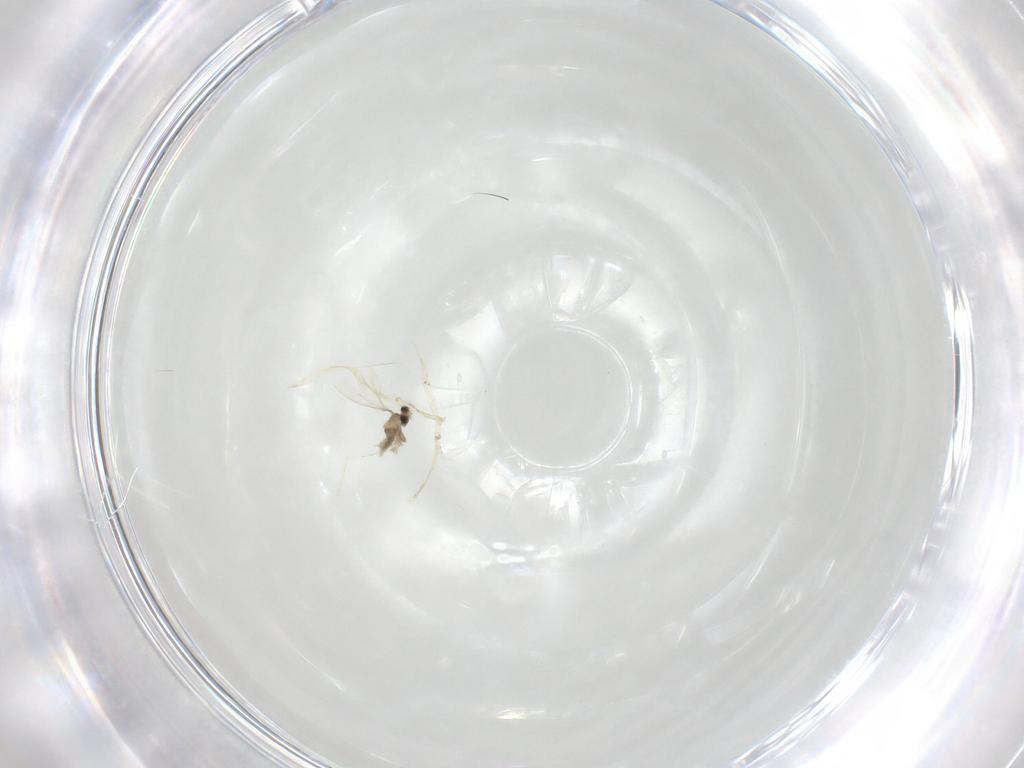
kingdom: Animalia
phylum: Arthropoda
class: Insecta
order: Diptera
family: Cecidomyiidae
